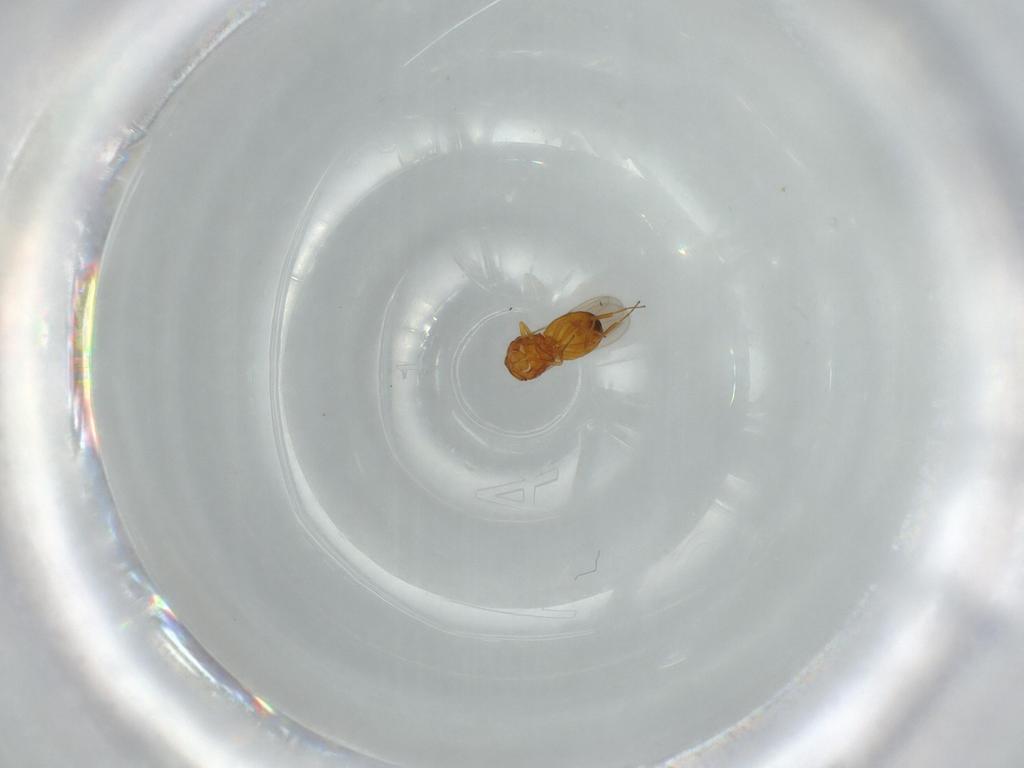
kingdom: Animalia
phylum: Arthropoda
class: Insecta
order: Hymenoptera
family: Scelionidae
